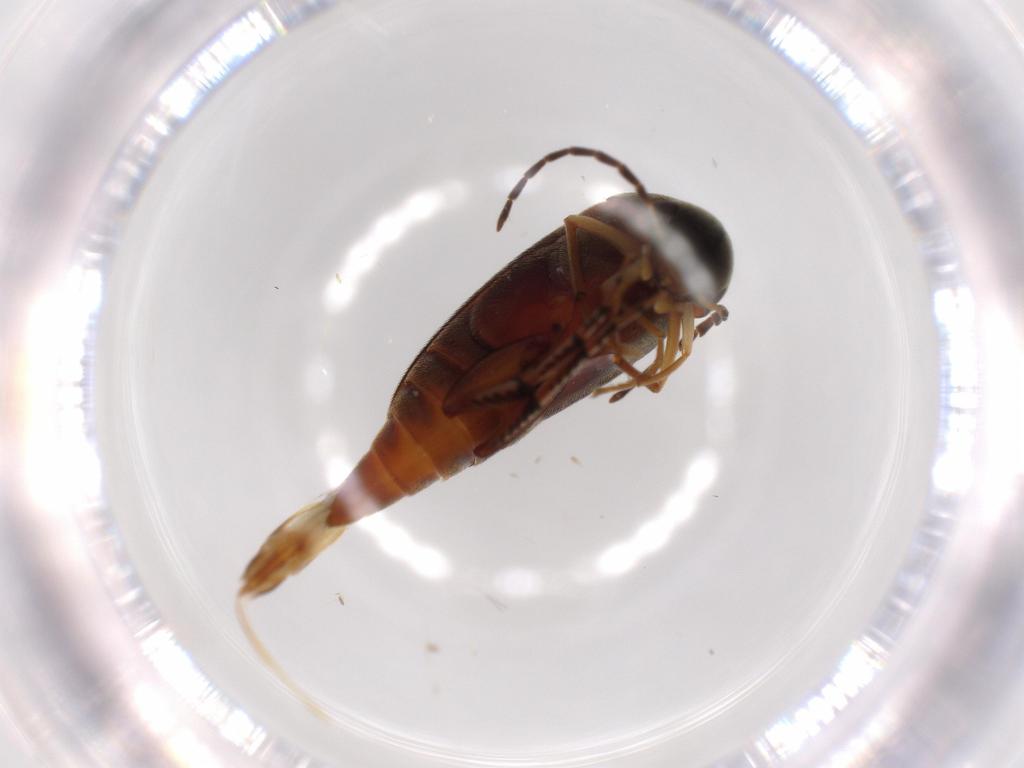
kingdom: Animalia
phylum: Arthropoda
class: Insecta
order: Coleoptera
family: Mordellidae
